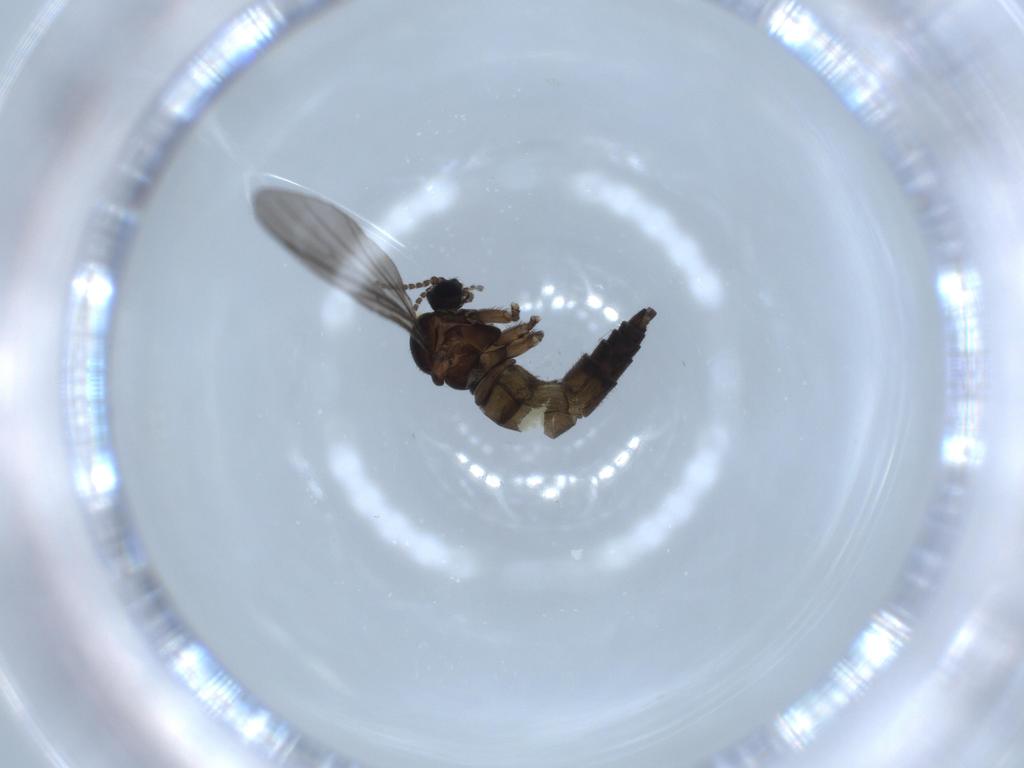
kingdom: Animalia
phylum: Arthropoda
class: Insecta
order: Diptera
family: Sciaridae
